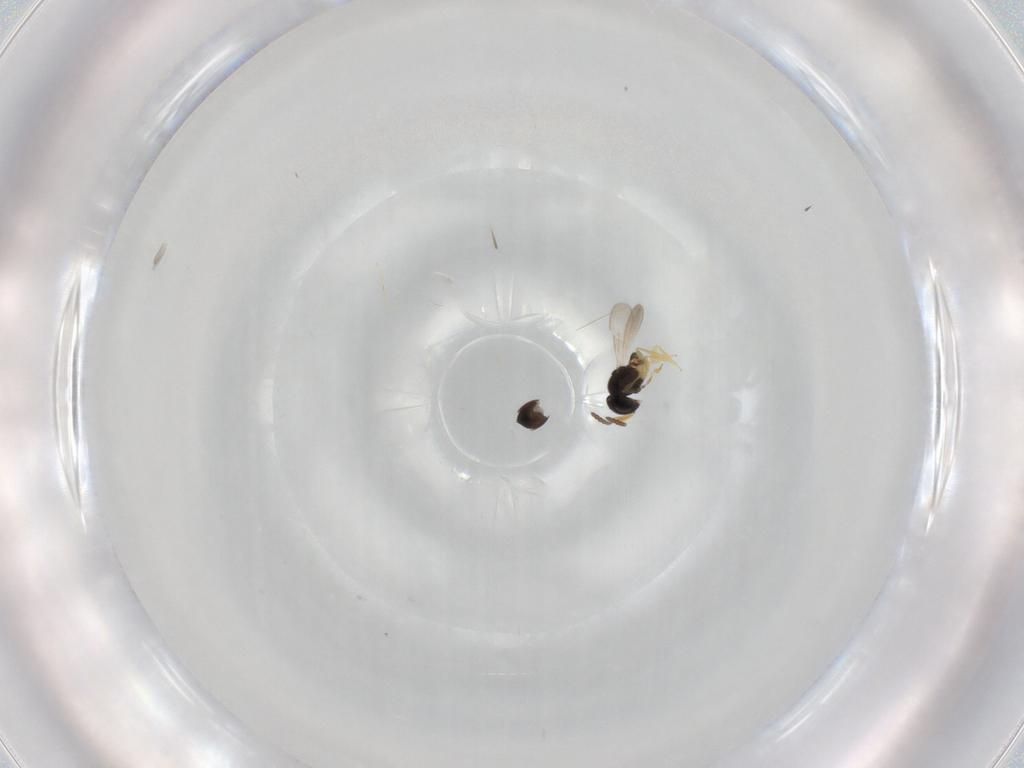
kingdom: Animalia
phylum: Arthropoda
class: Insecta
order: Hymenoptera
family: Scelionidae
